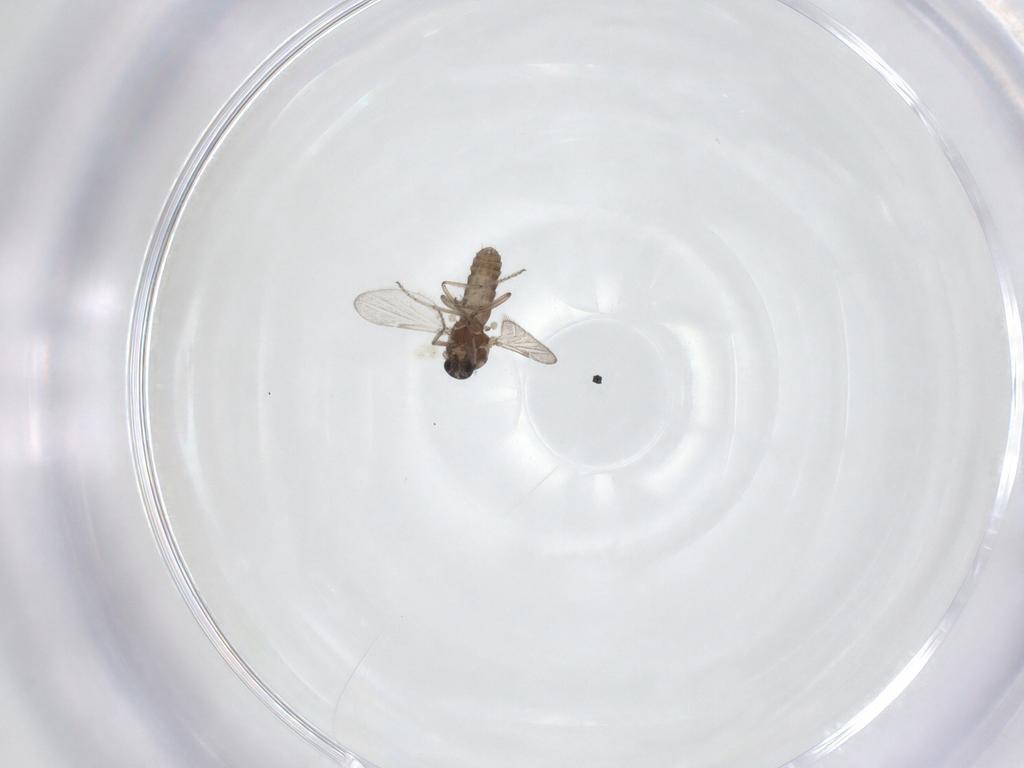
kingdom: Animalia
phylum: Arthropoda
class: Insecta
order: Diptera
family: Ceratopogonidae
